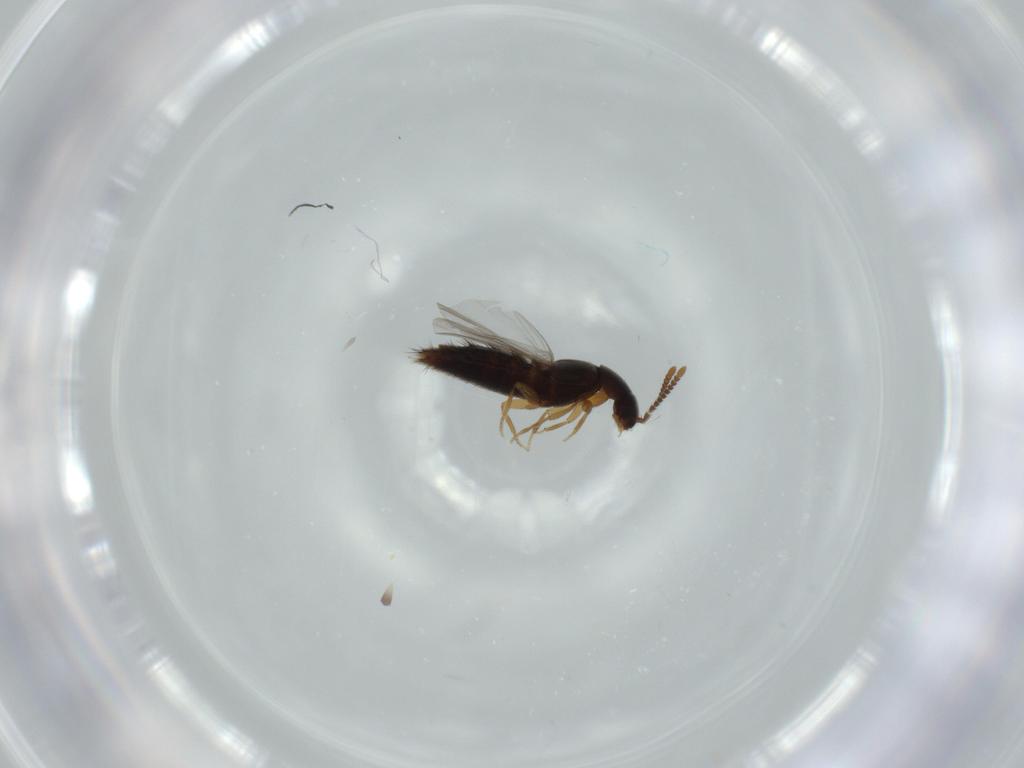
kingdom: Animalia
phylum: Arthropoda
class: Insecta
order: Coleoptera
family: Staphylinidae
